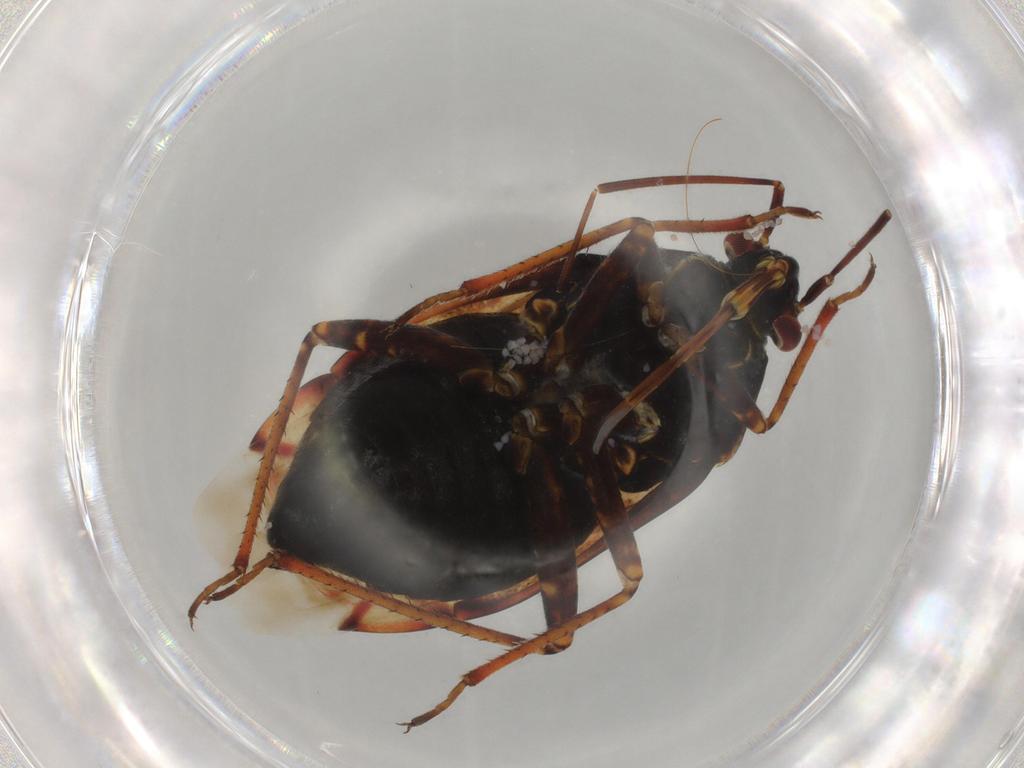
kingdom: Animalia
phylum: Arthropoda
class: Insecta
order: Hemiptera
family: Miridae
